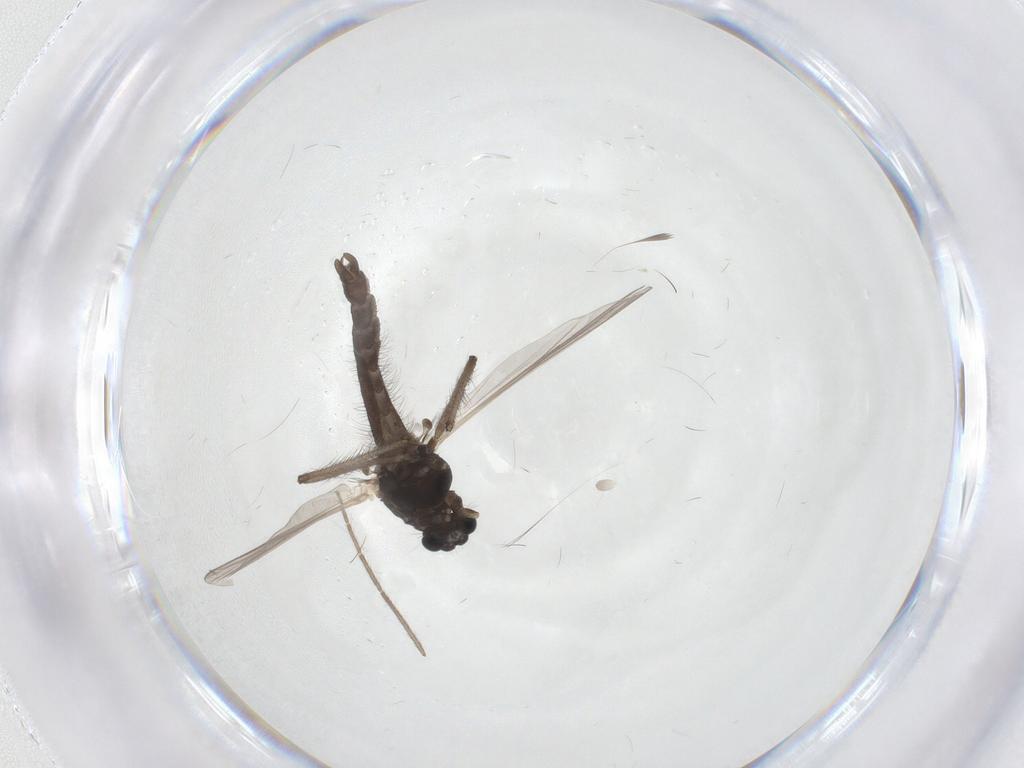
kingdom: Animalia
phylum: Arthropoda
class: Insecta
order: Diptera
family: Chironomidae
